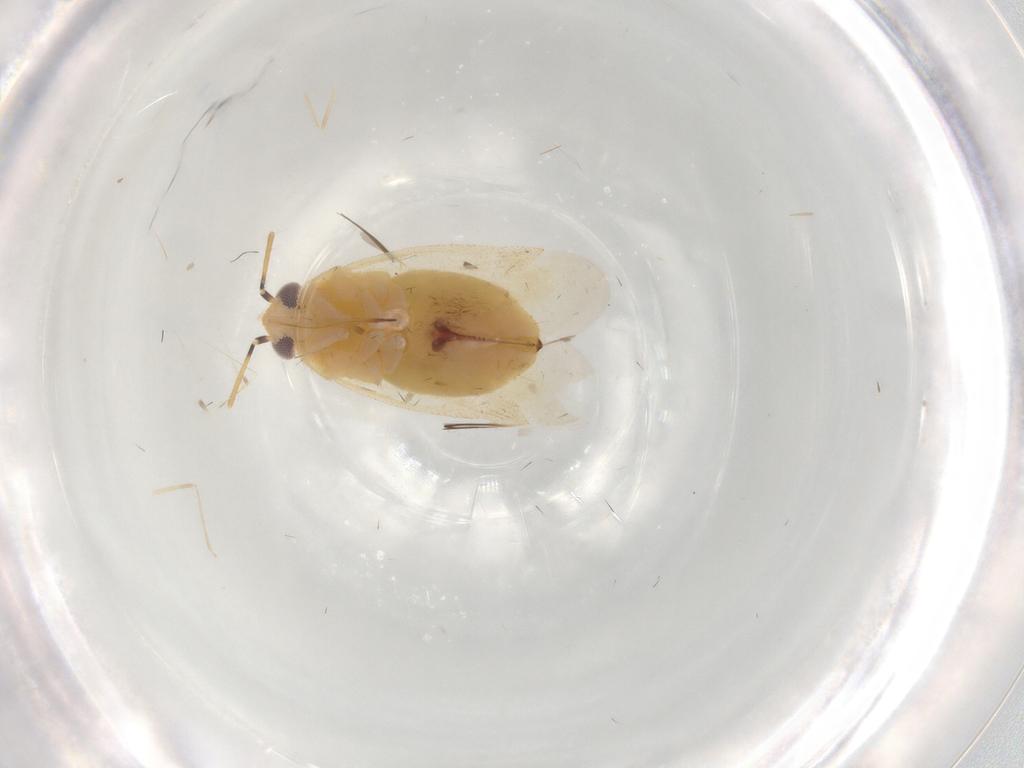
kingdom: Animalia
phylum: Arthropoda
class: Insecta
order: Hemiptera
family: Miridae
